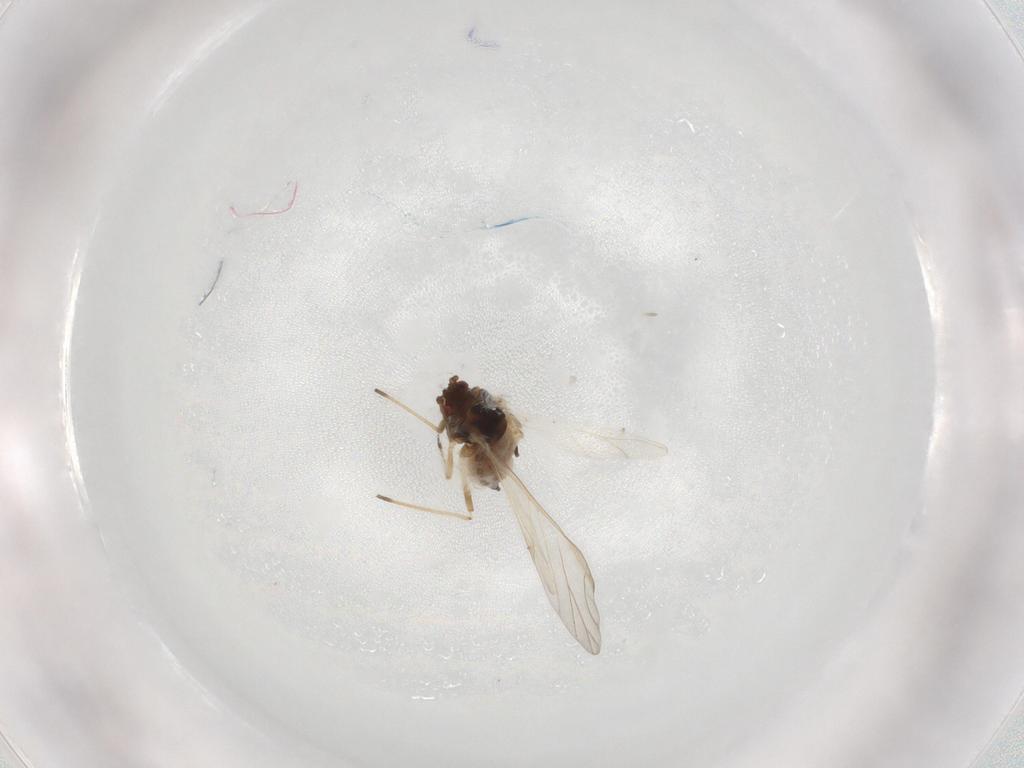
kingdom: Animalia
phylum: Arthropoda
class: Insecta
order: Hemiptera
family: Aphididae
